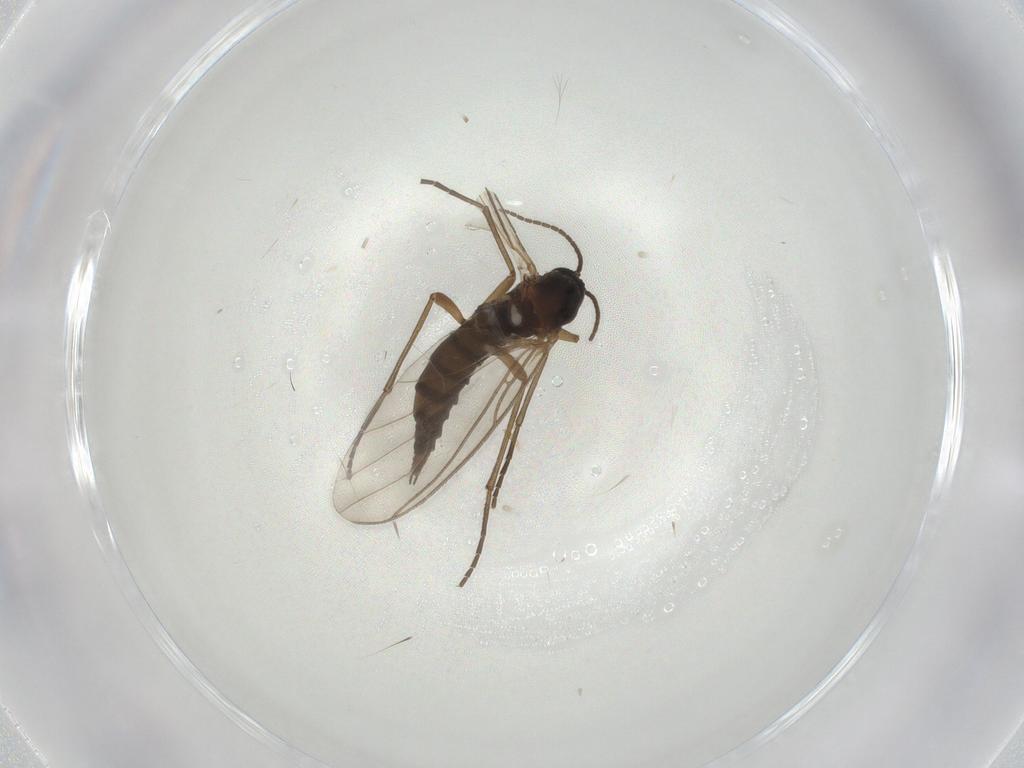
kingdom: Animalia
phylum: Arthropoda
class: Insecta
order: Diptera
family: Sciaridae
